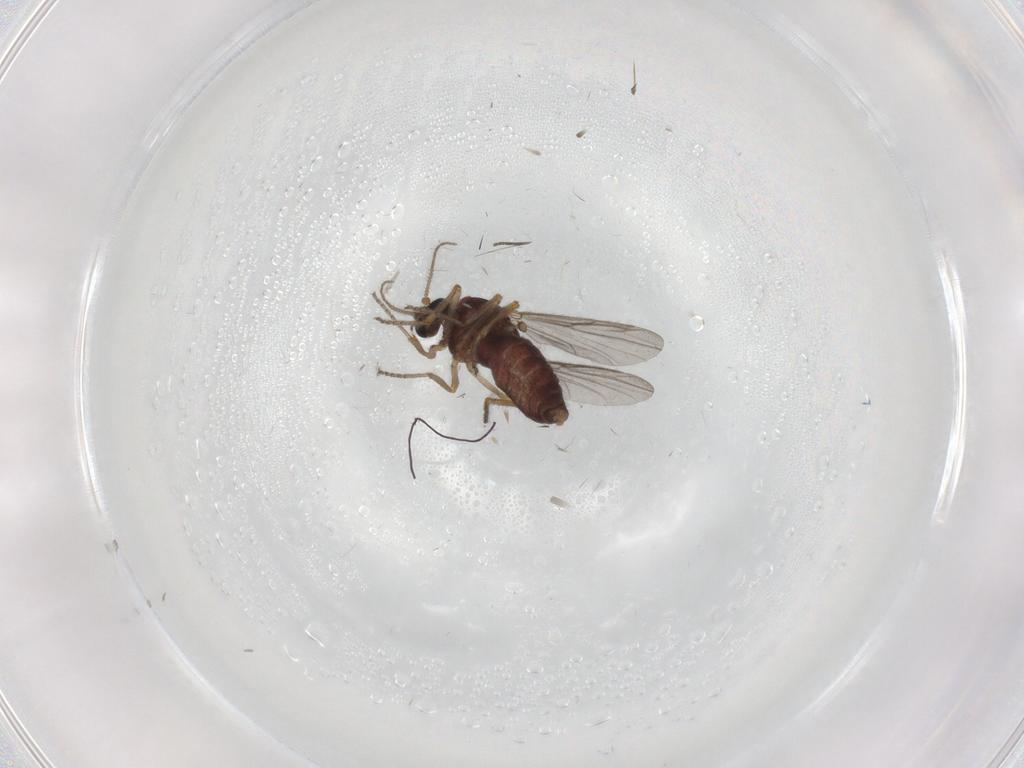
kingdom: Animalia
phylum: Arthropoda
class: Insecta
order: Diptera
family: Ceratopogonidae
